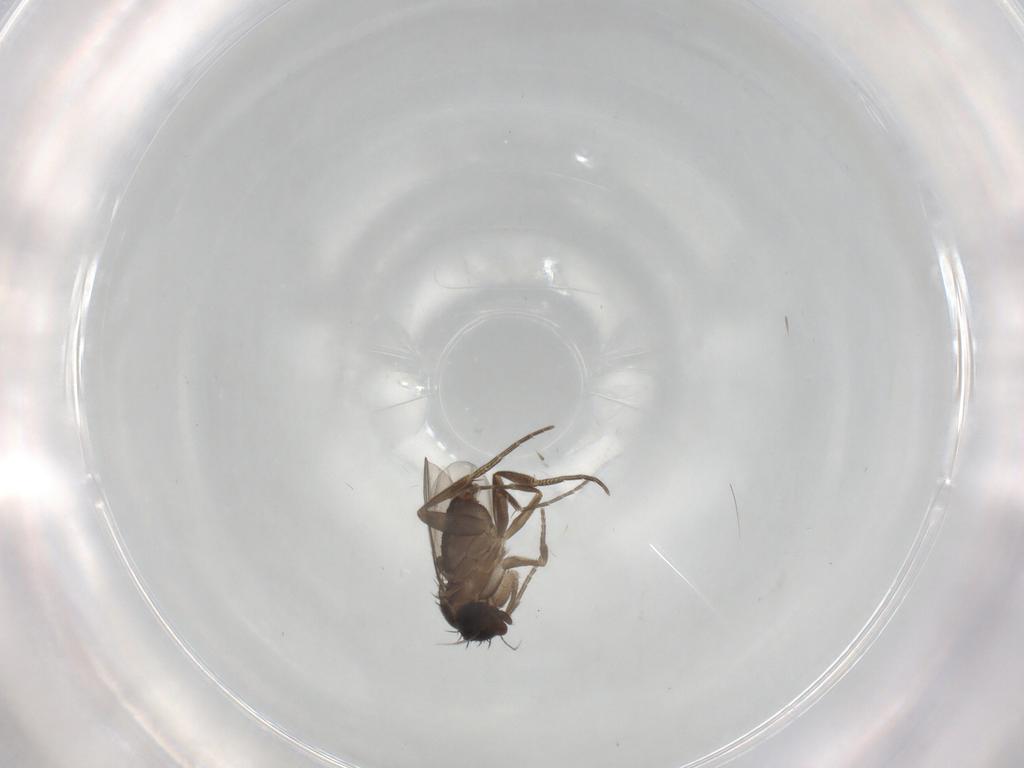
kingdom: Animalia
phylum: Arthropoda
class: Insecta
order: Diptera
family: Phoridae
